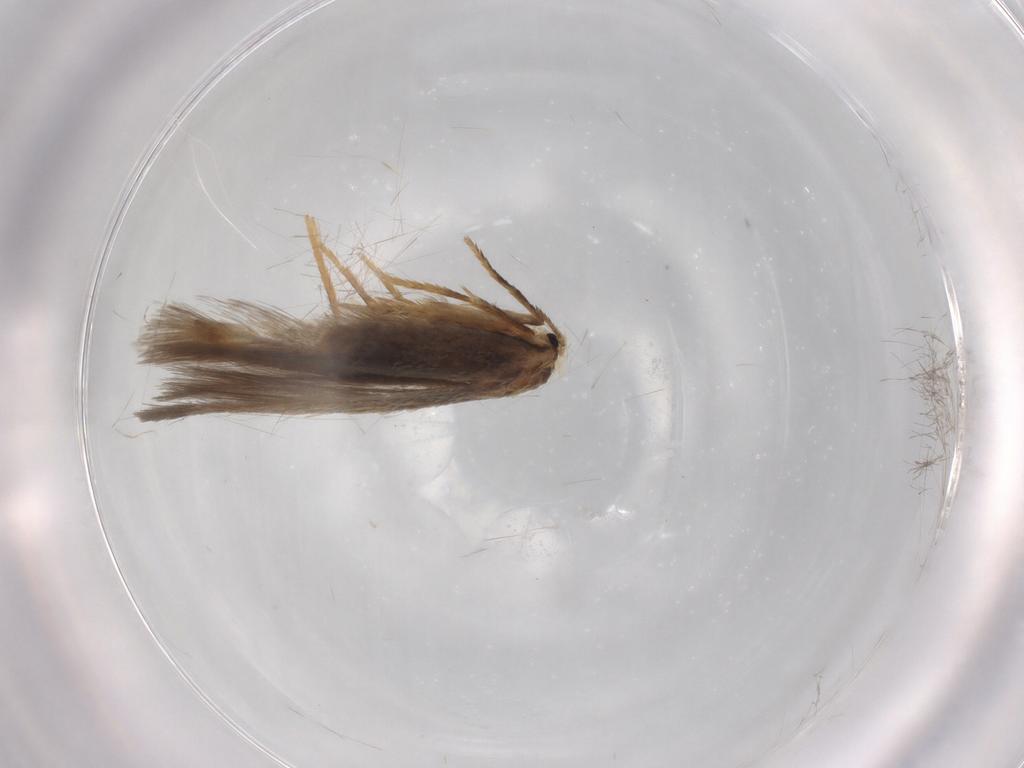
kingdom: Animalia
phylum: Arthropoda
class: Insecta
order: Lepidoptera
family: Nepticulidae
